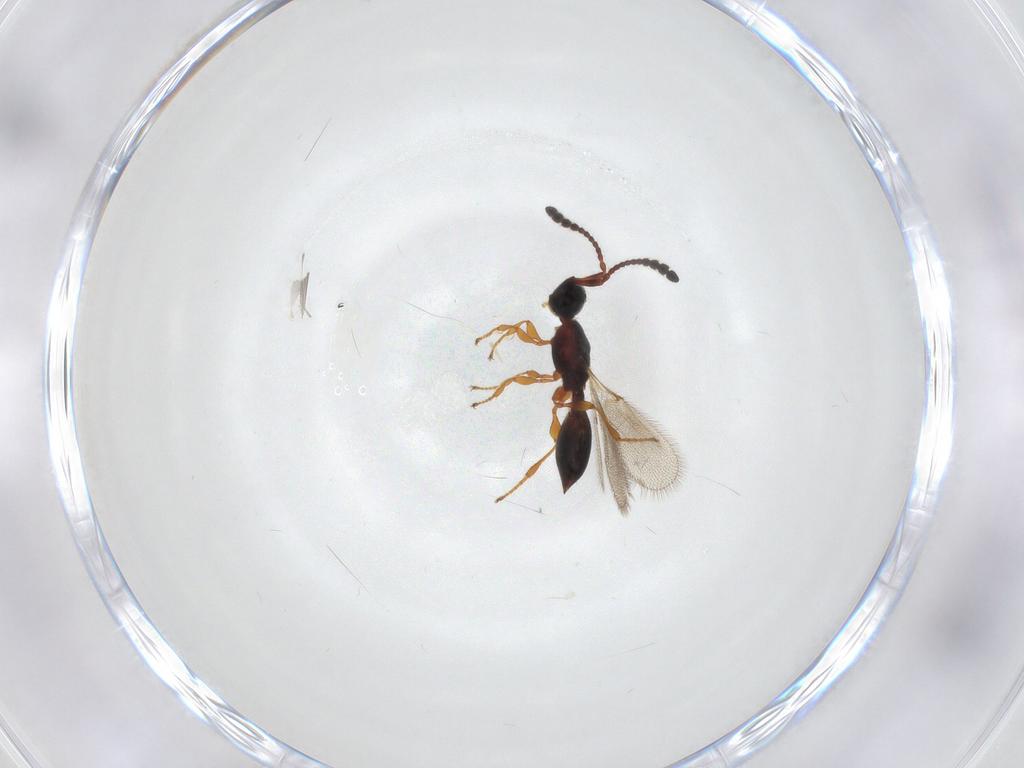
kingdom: Animalia
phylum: Arthropoda
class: Insecta
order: Hymenoptera
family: Diapriidae
